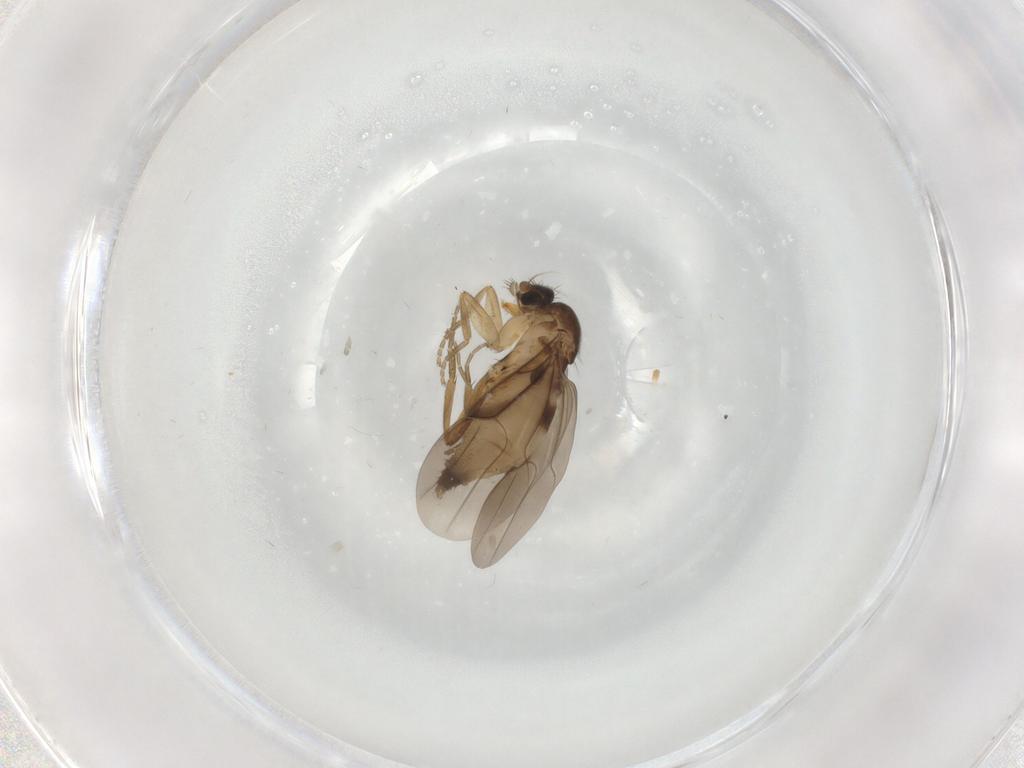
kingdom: Animalia
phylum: Arthropoda
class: Insecta
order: Diptera
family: Phoridae
